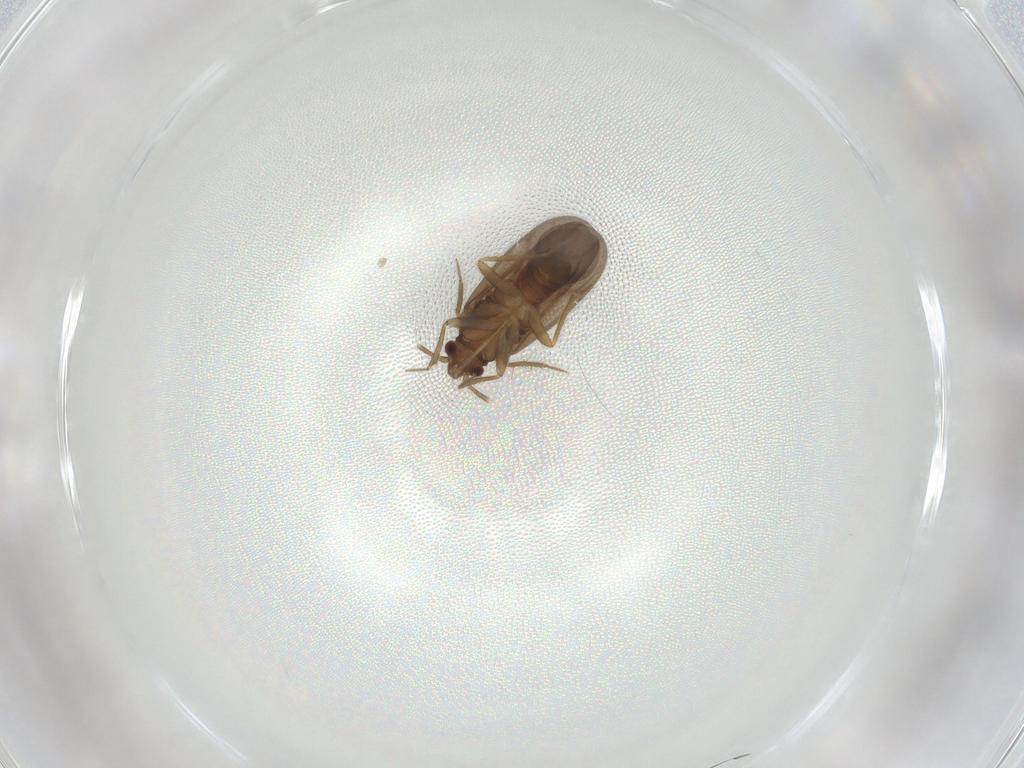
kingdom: Animalia
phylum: Arthropoda
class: Insecta
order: Hemiptera
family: Ceratocombidae
